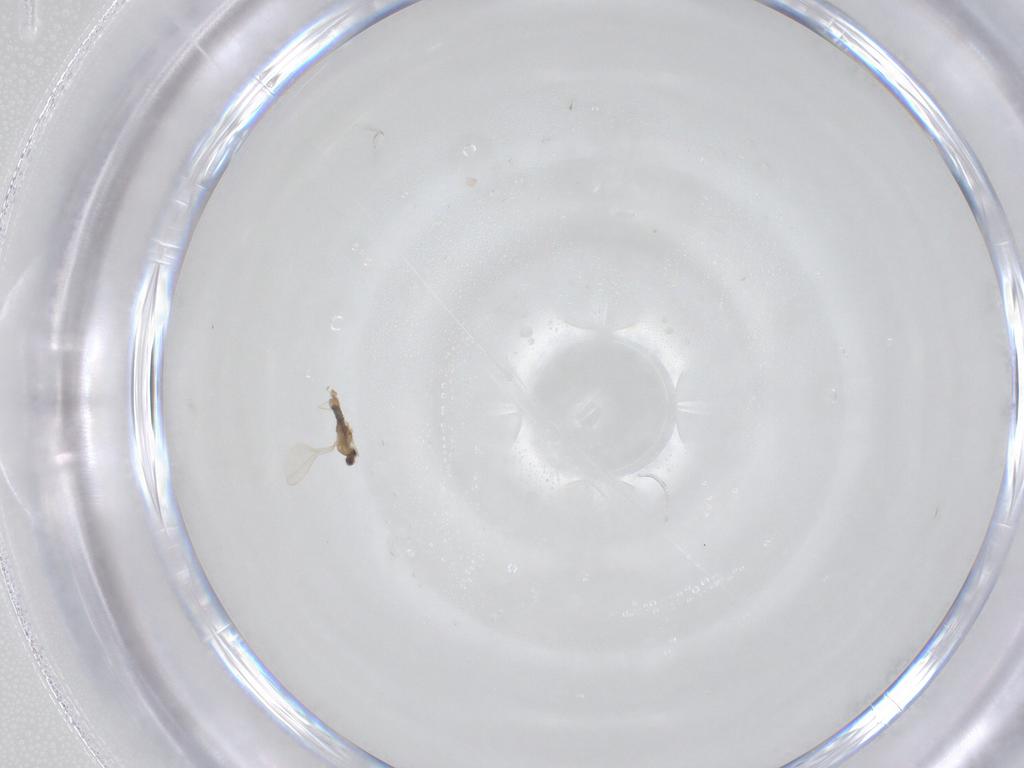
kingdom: Animalia
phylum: Arthropoda
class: Insecta
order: Diptera
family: Cecidomyiidae
